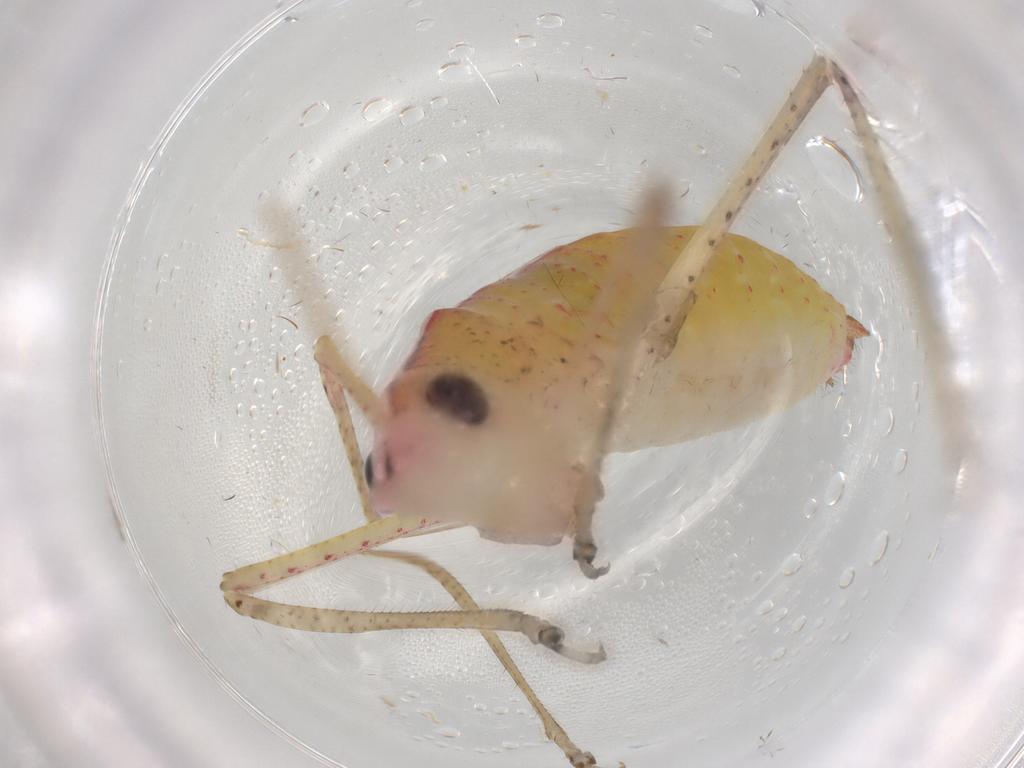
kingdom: Animalia
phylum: Arthropoda
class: Insecta
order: Orthoptera
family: Tettigoniidae
